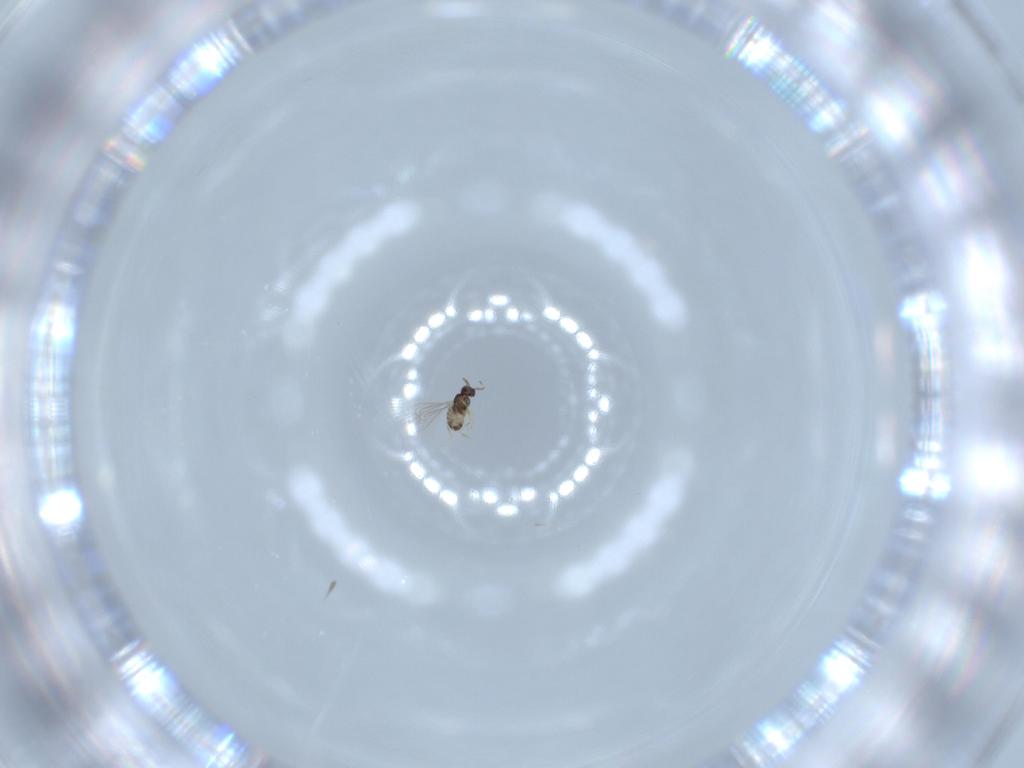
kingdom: Animalia
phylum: Arthropoda
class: Insecta
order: Hymenoptera
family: Mymaridae
